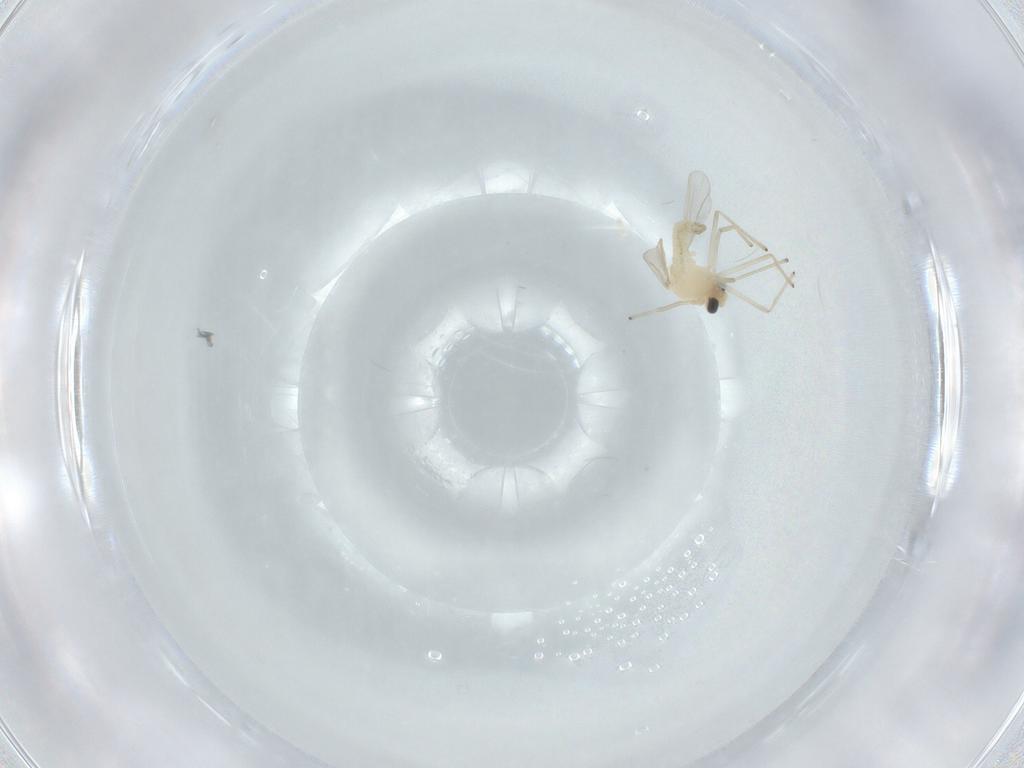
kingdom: Animalia
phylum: Arthropoda
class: Insecta
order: Diptera
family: Chironomidae
